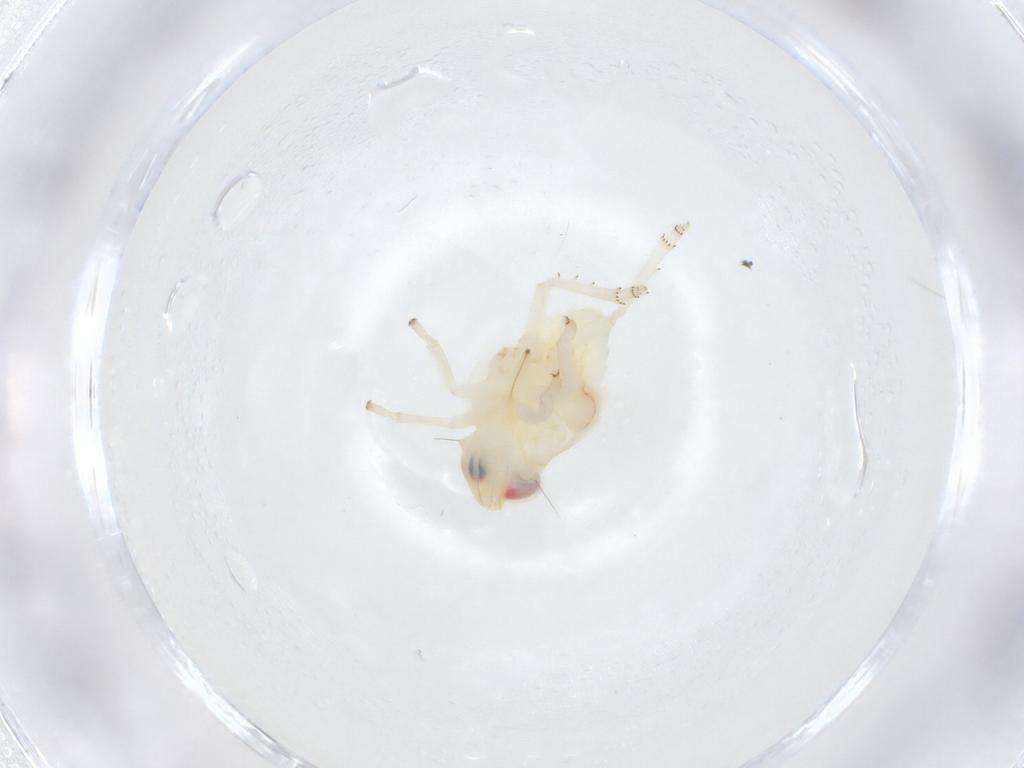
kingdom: Animalia
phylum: Arthropoda
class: Insecta
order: Hemiptera
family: Nogodinidae
